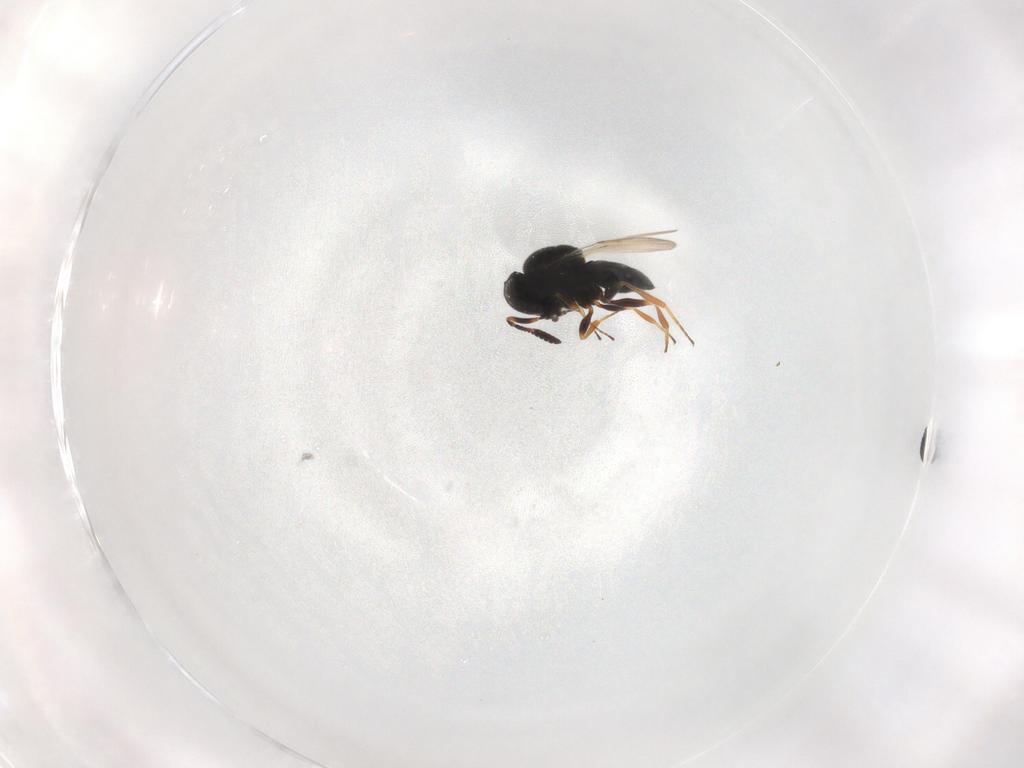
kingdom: Animalia
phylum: Arthropoda
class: Insecta
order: Hymenoptera
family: Scelionidae
